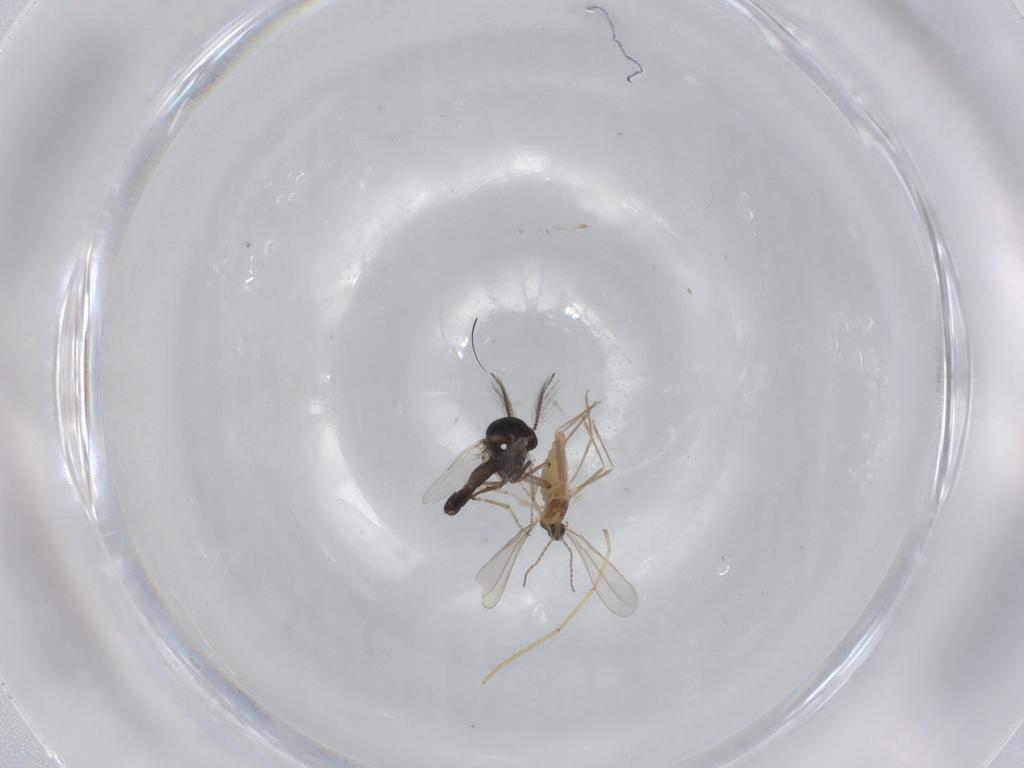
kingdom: Animalia
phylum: Arthropoda
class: Insecta
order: Diptera
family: Cecidomyiidae
